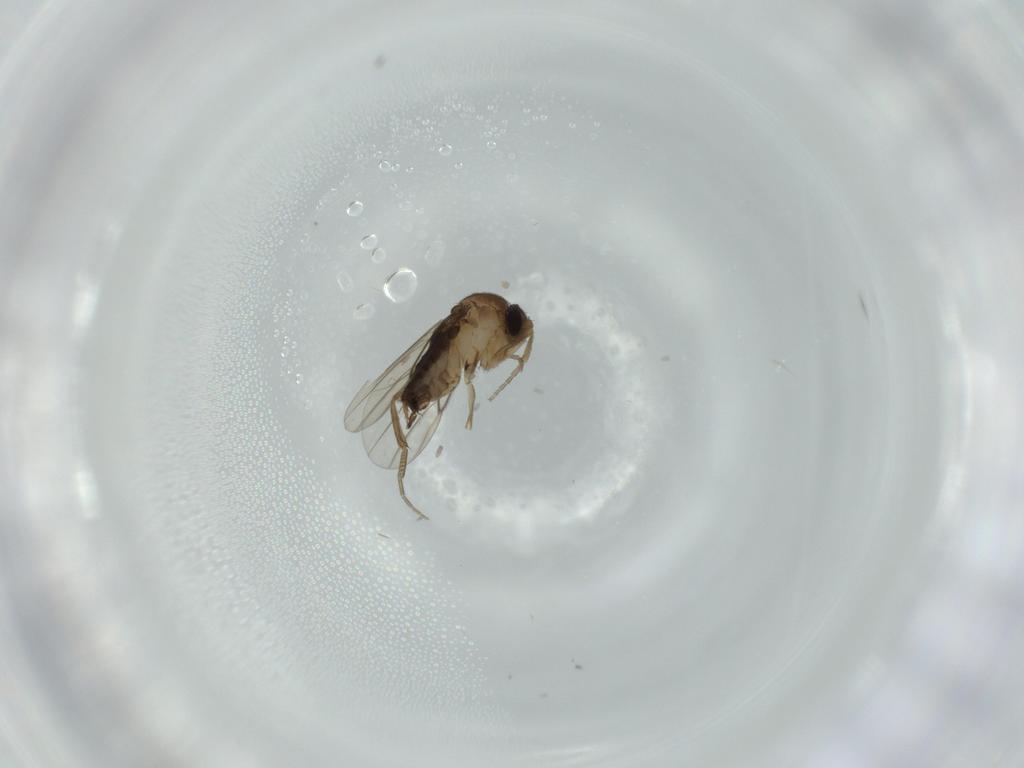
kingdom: Animalia
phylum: Arthropoda
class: Insecta
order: Diptera
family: Phoridae
